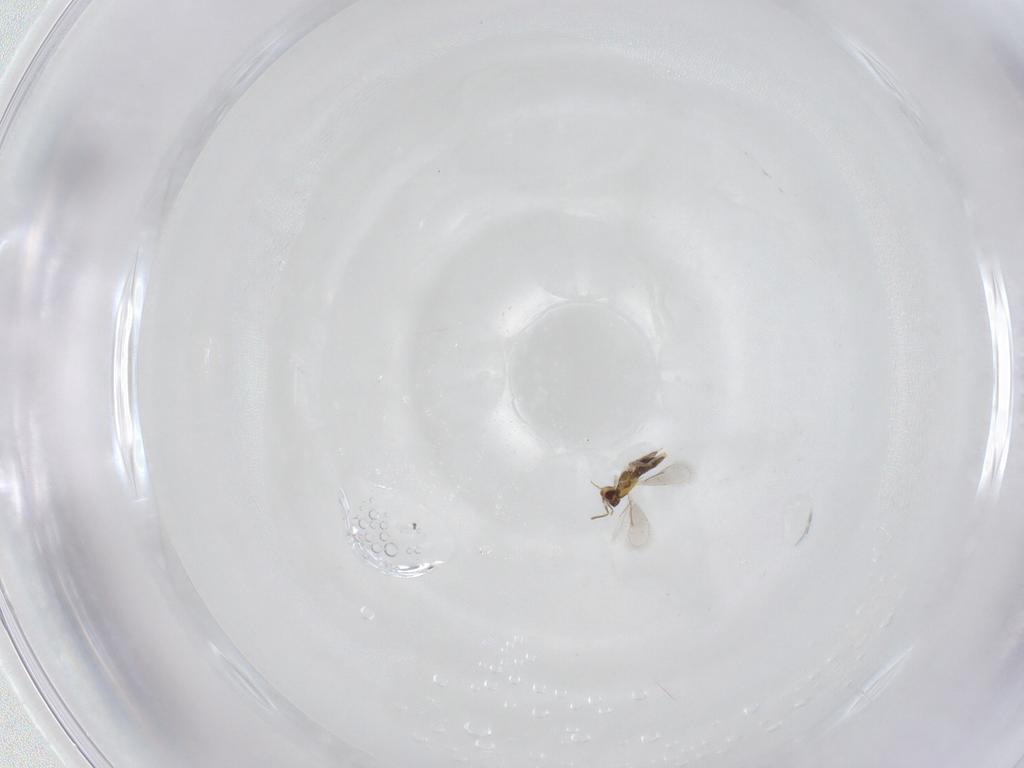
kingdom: Animalia
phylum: Arthropoda
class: Insecta
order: Hymenoptera
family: Aphelinidae
